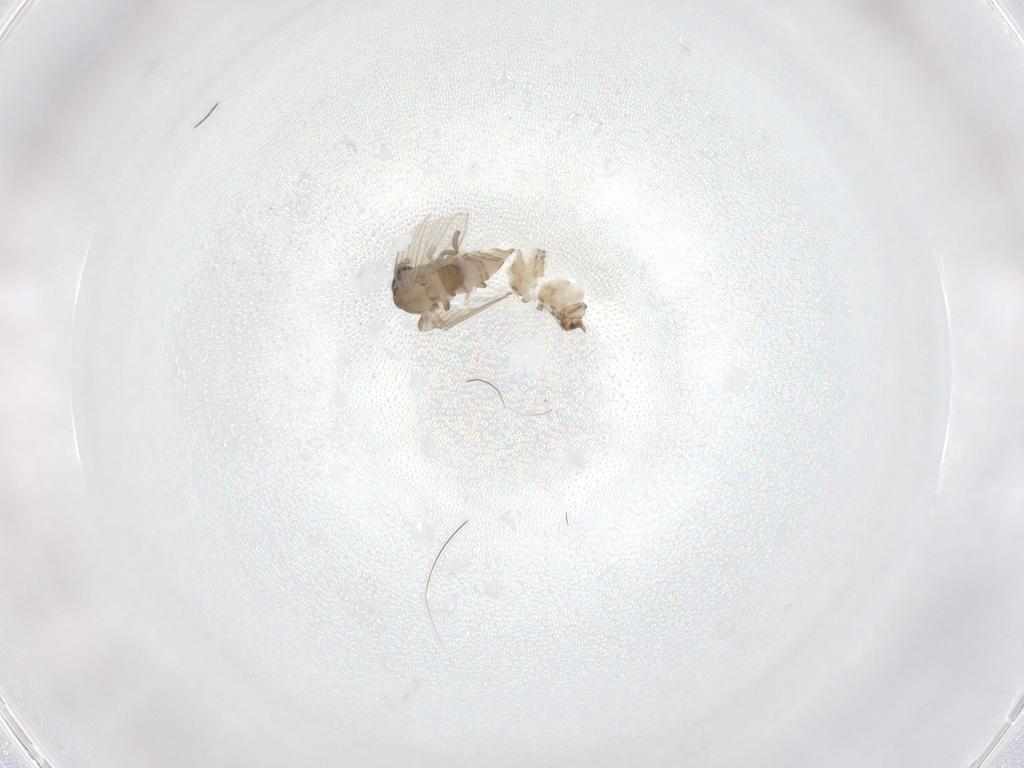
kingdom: Animalia
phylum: Arthropoda
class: Insecta
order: Diptera
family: Psychodidae
